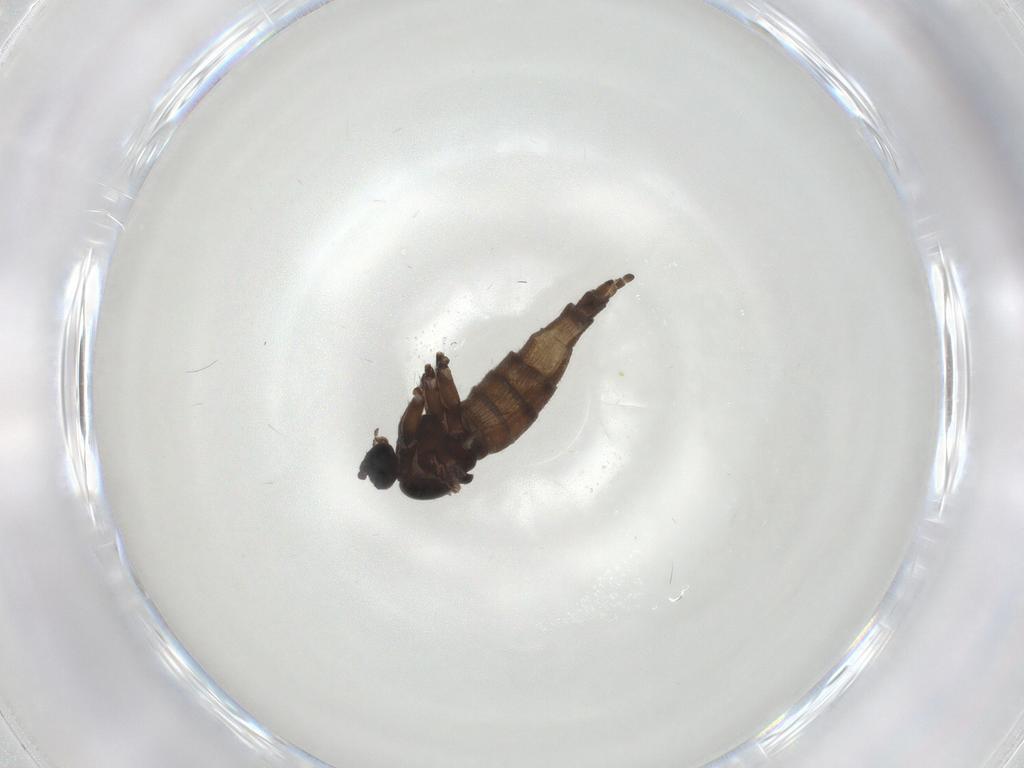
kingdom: Animalia
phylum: Arthropoda
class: Insecta
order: Diptera
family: Sciaridae
